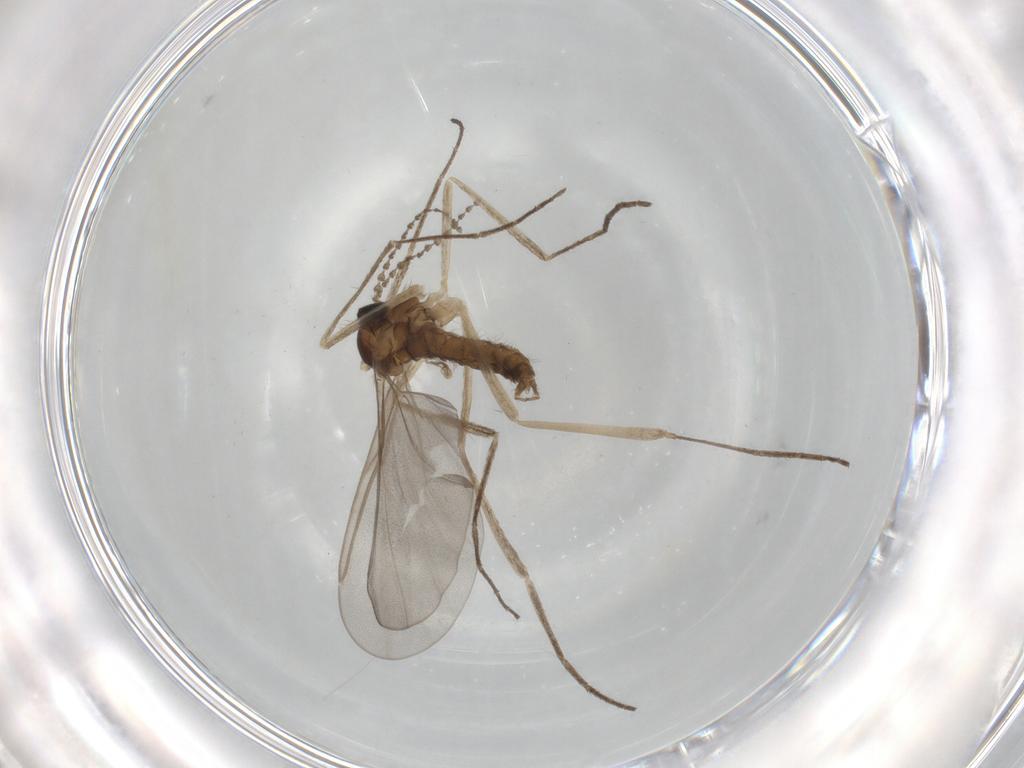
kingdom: Animalia
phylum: Arthropoda
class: Insecta
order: Diptera
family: Cecidomyiidae
